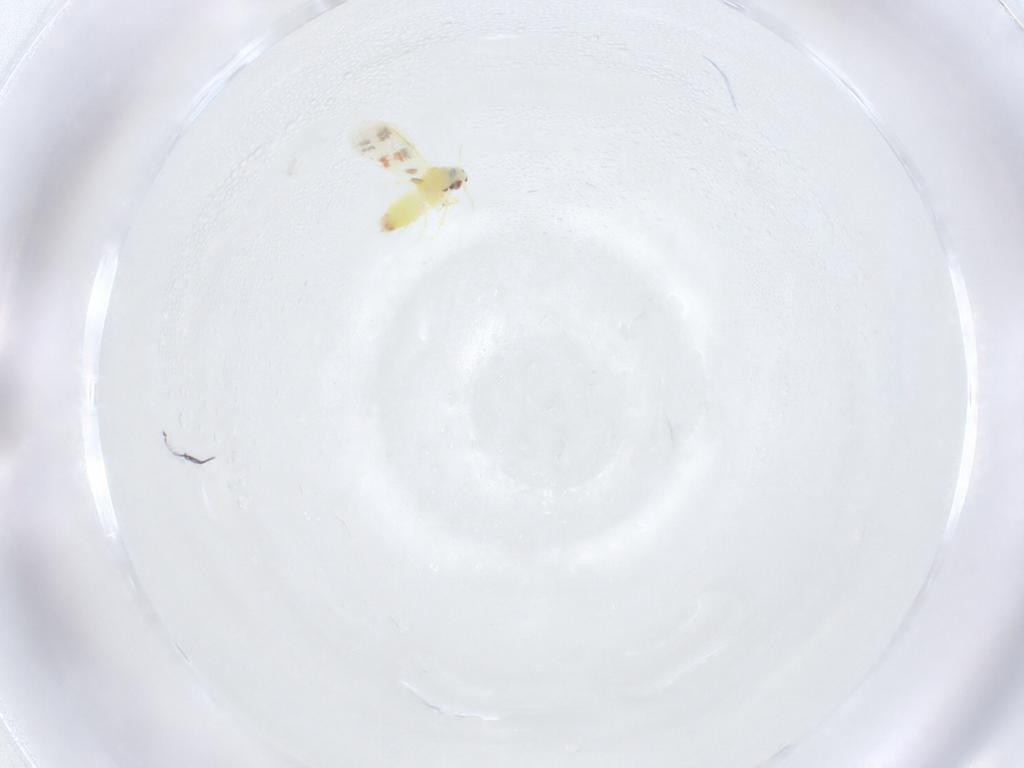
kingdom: Animalia
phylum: Arthropoda
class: Insecta
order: Hemiptera
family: Aleyrodidae
